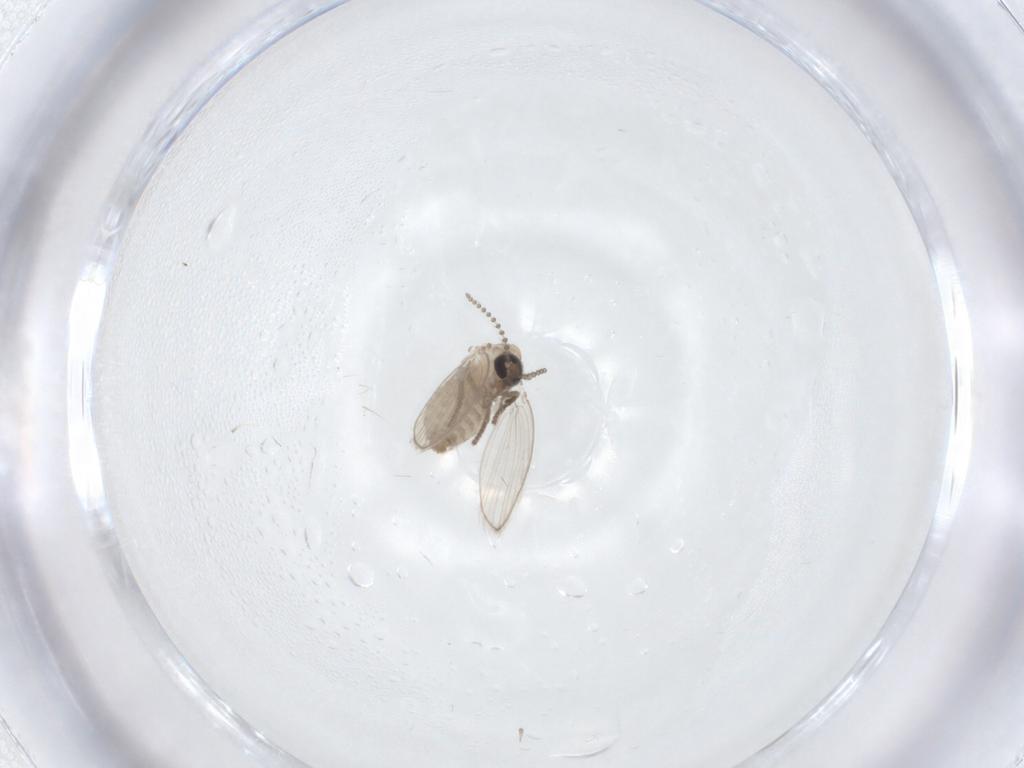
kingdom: Animalia
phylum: Arthropoda
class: Insecta
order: Diptera
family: Psychodidae
